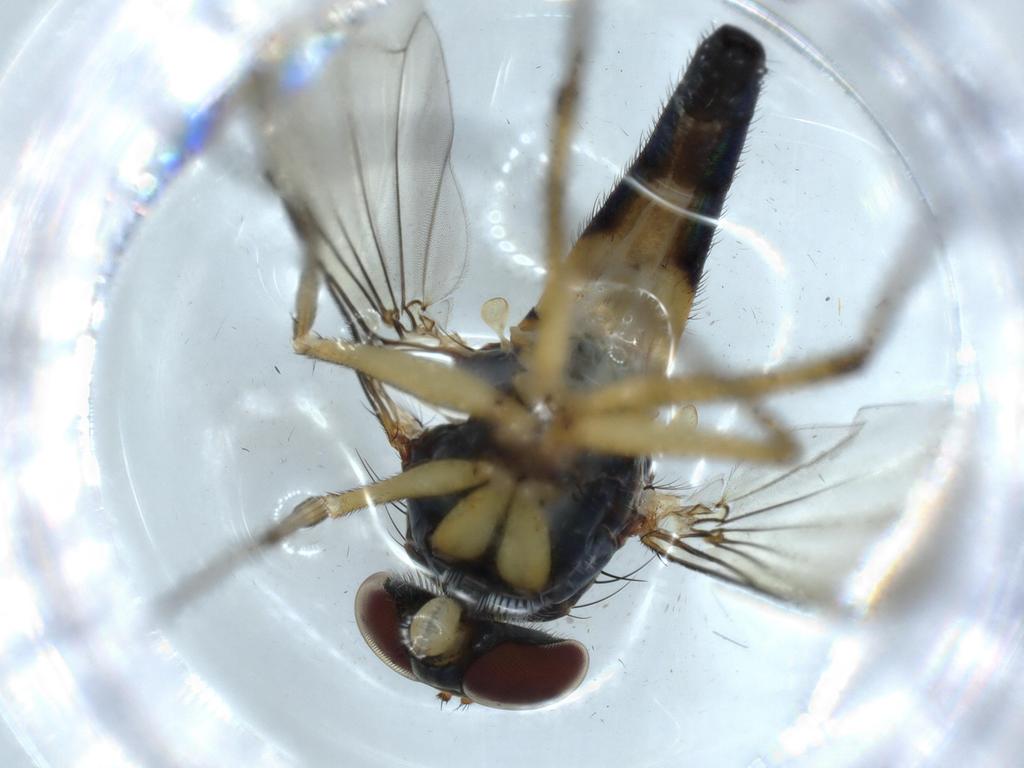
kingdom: Animalia
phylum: Arthropoda
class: Insecta
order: Diptera
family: Dolichopodidae
